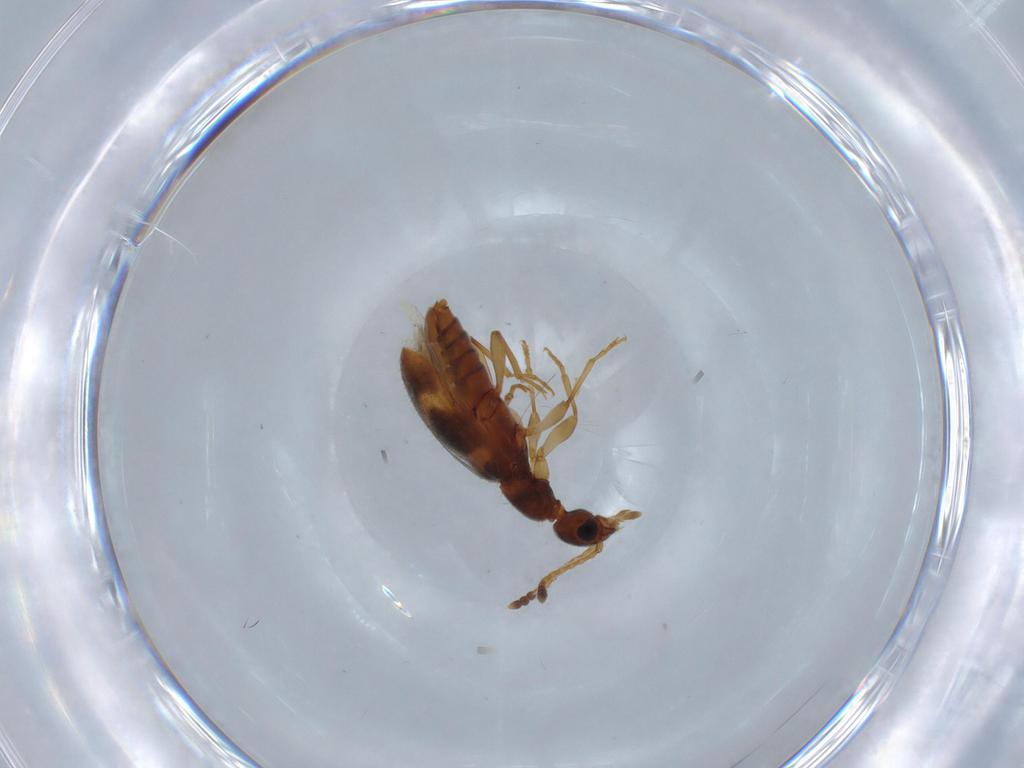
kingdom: Animalia
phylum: Arthropoda
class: Insecta
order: Coleoptera
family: Anthicidae
